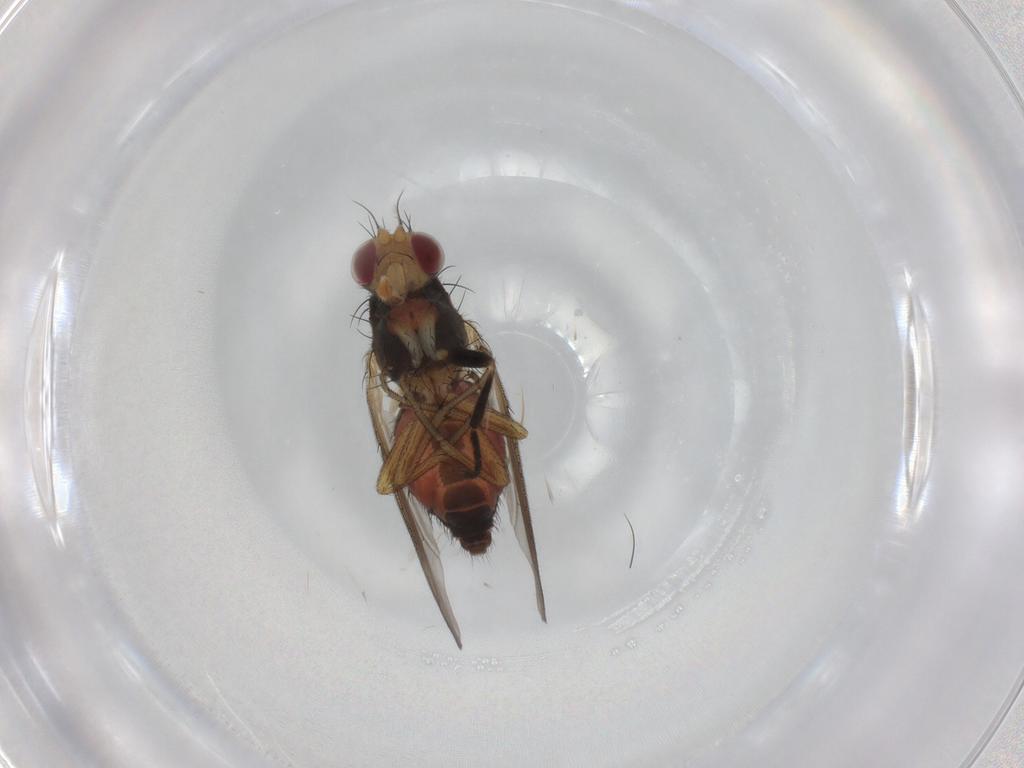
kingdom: Animalia
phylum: Arthropoda
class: Insecta
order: Diptera
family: Heleomyzidae
